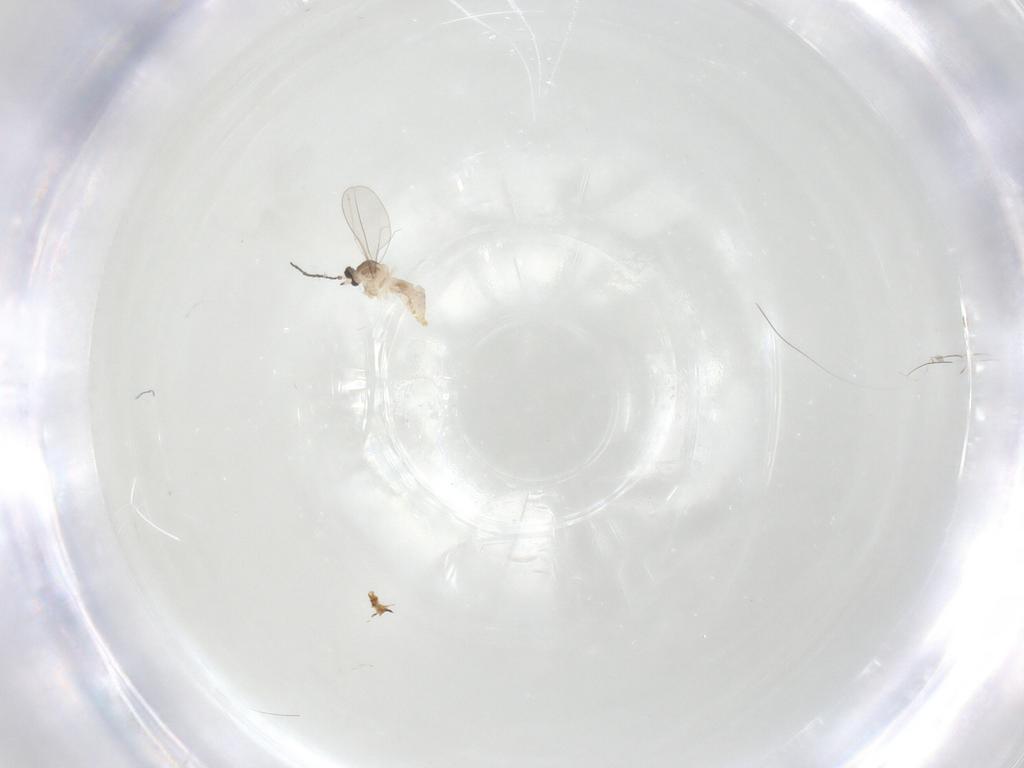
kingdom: Animalia
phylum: Arthropoda
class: Insecta
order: Diptera
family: Cecidomyiidae
